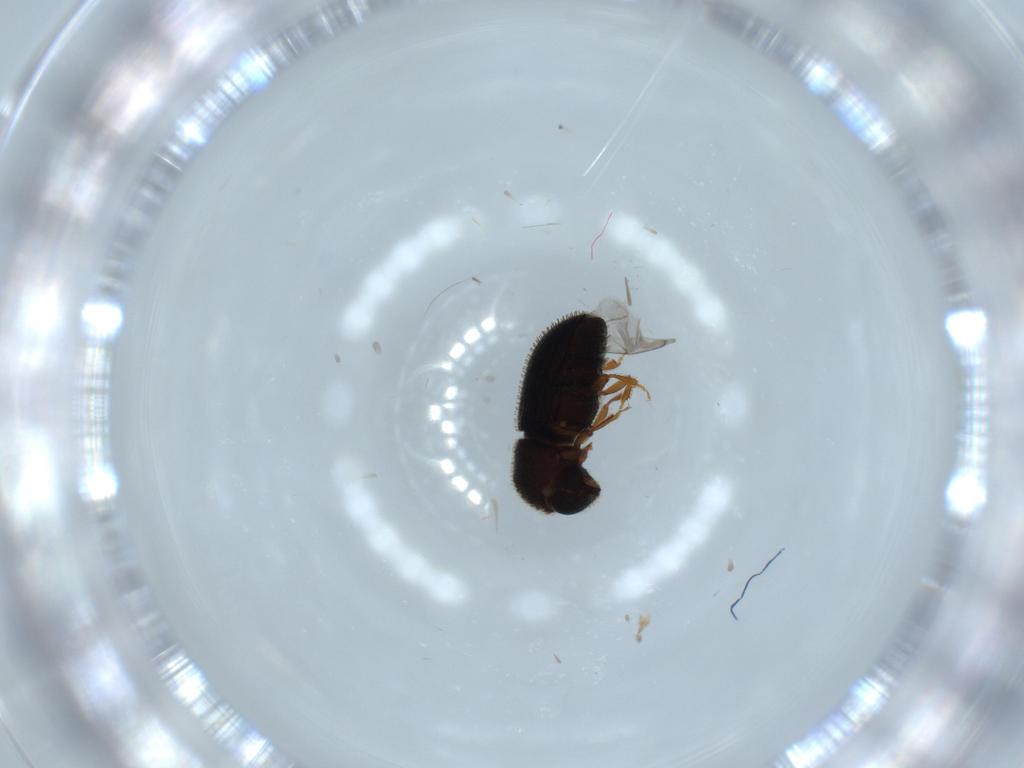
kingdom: Animalia
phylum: Arthropoda
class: Insecta
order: Coleoptera
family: Curculionidae
